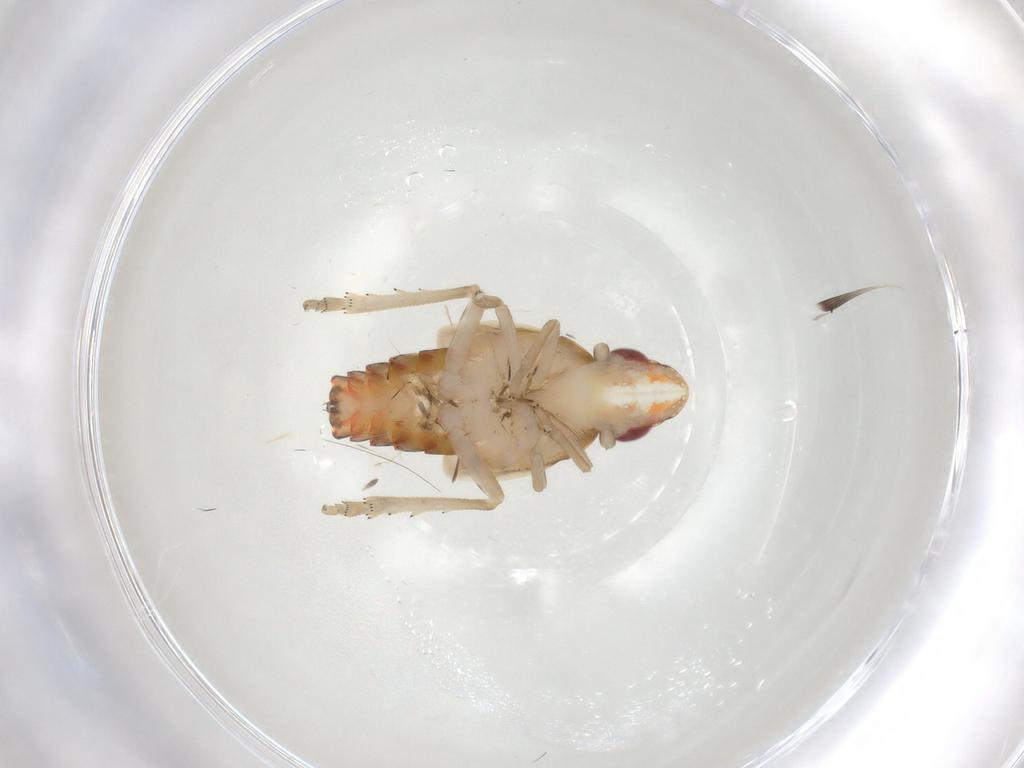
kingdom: Animalia
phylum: Arthropoda
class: Insecta
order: Hemiptera
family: Tropiduchidae
